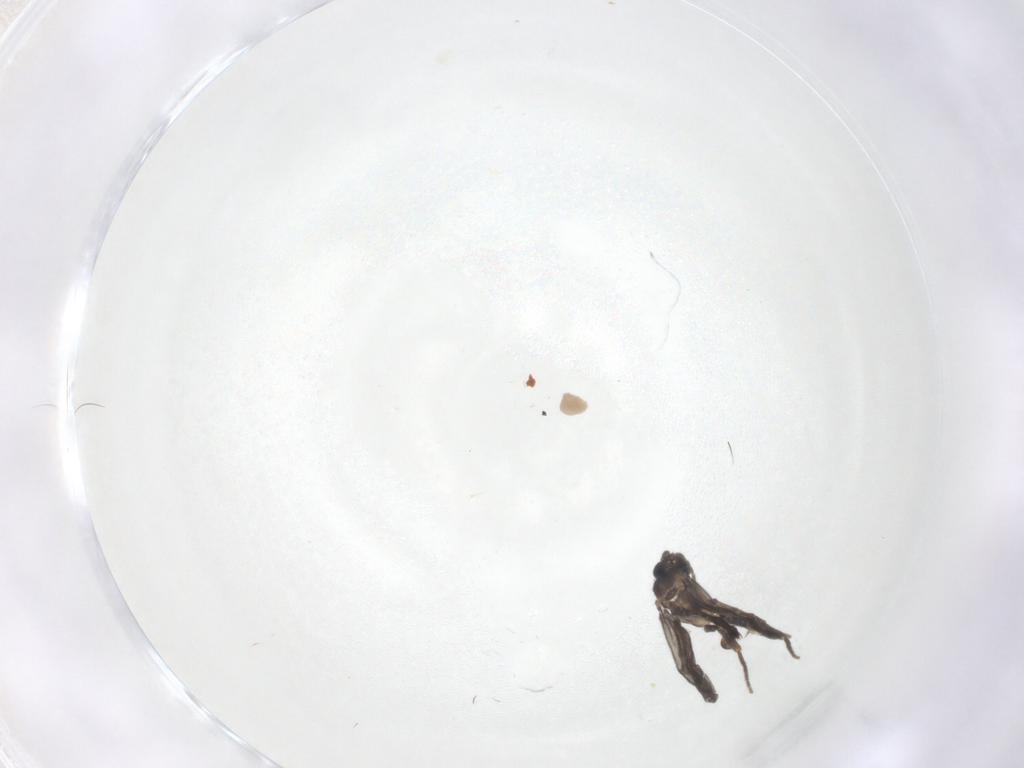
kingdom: Animalia
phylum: Arthropoda
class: Insecta
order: Diptera
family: Phoridae
